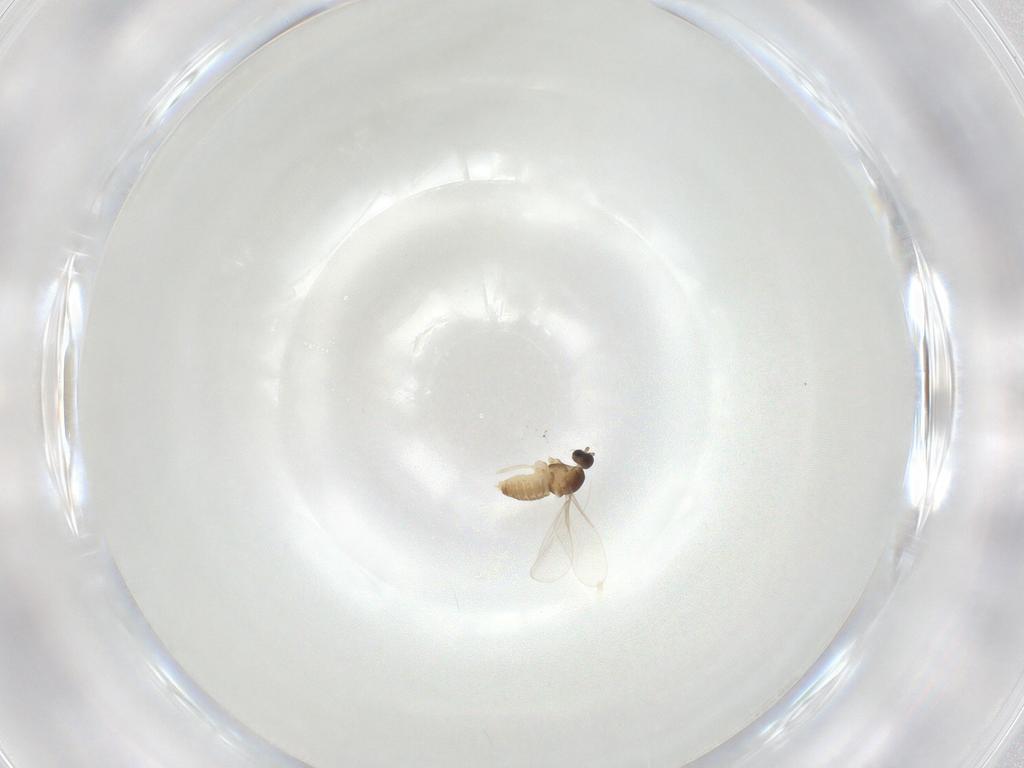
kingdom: Animalia
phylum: Arthropoda
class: Insecta
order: Diptera
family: Cecidomyiidae
